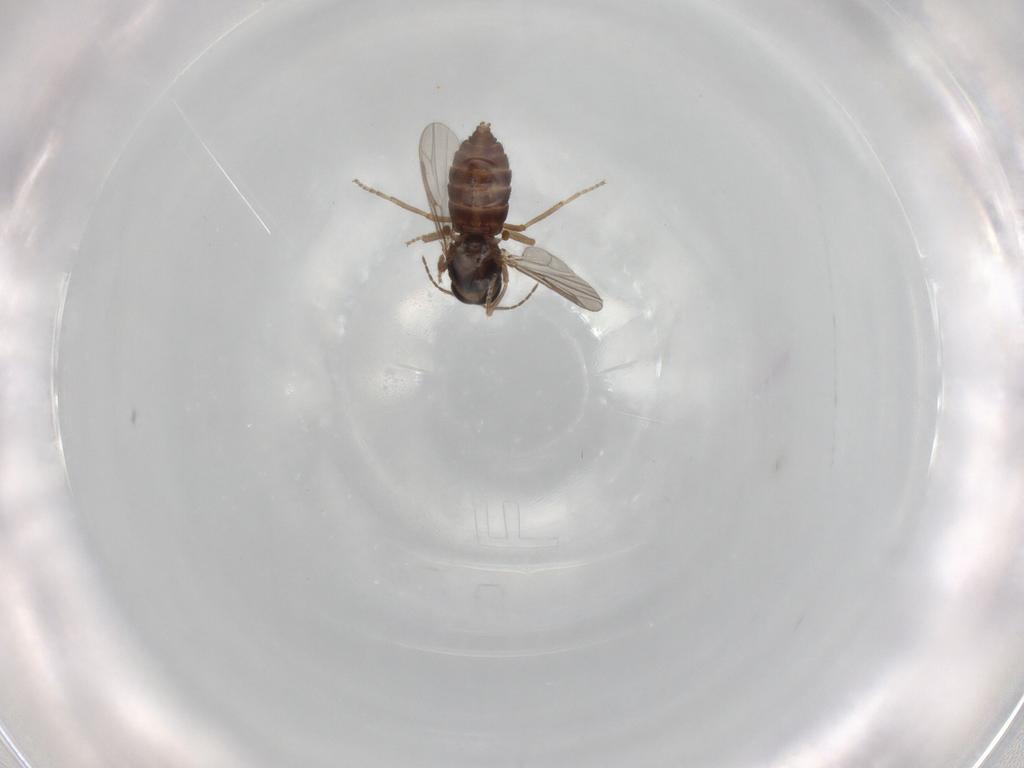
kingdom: Animalia
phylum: Arthropoda
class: Insecta
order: Diptera
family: Ceratopogonidae
